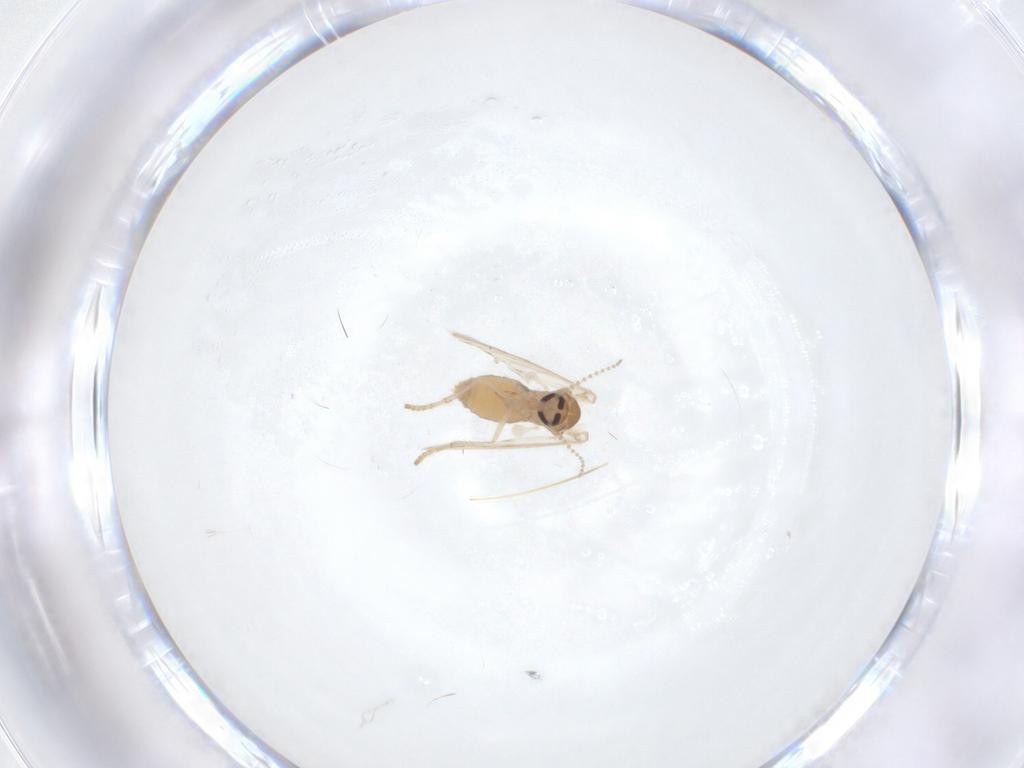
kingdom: Animalia
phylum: Arthropoda
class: Insecta
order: Diptera
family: Psychodidae
